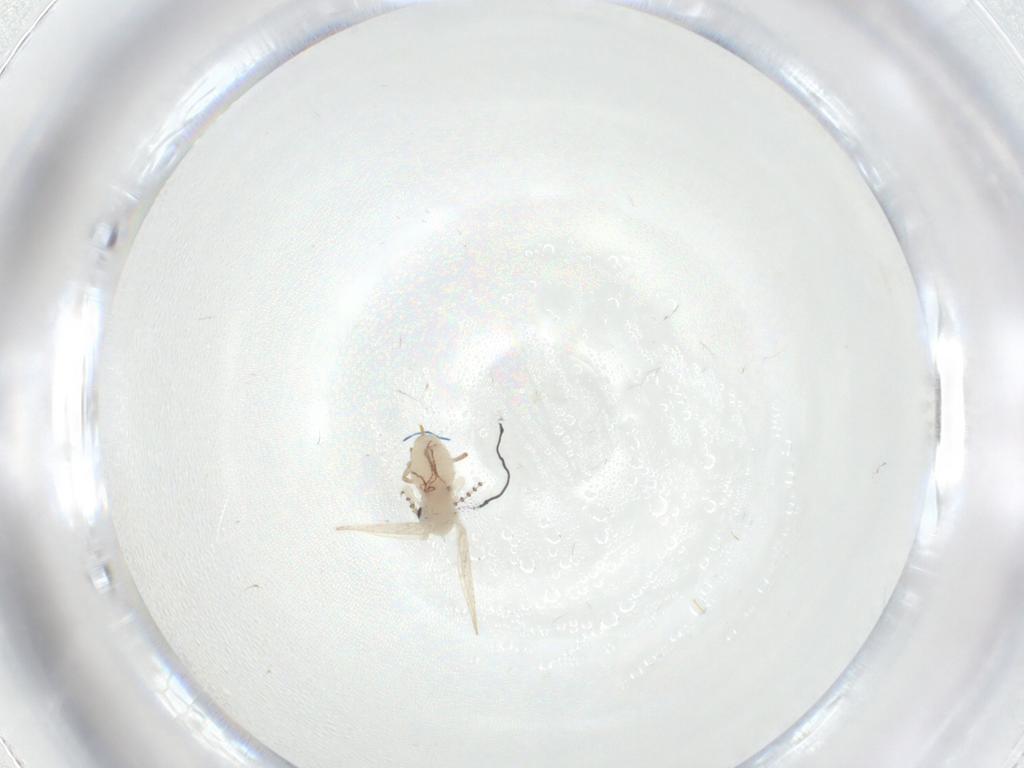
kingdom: Animalia
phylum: Arthropoda
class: Insecta
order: Diptera
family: Psychodidae
